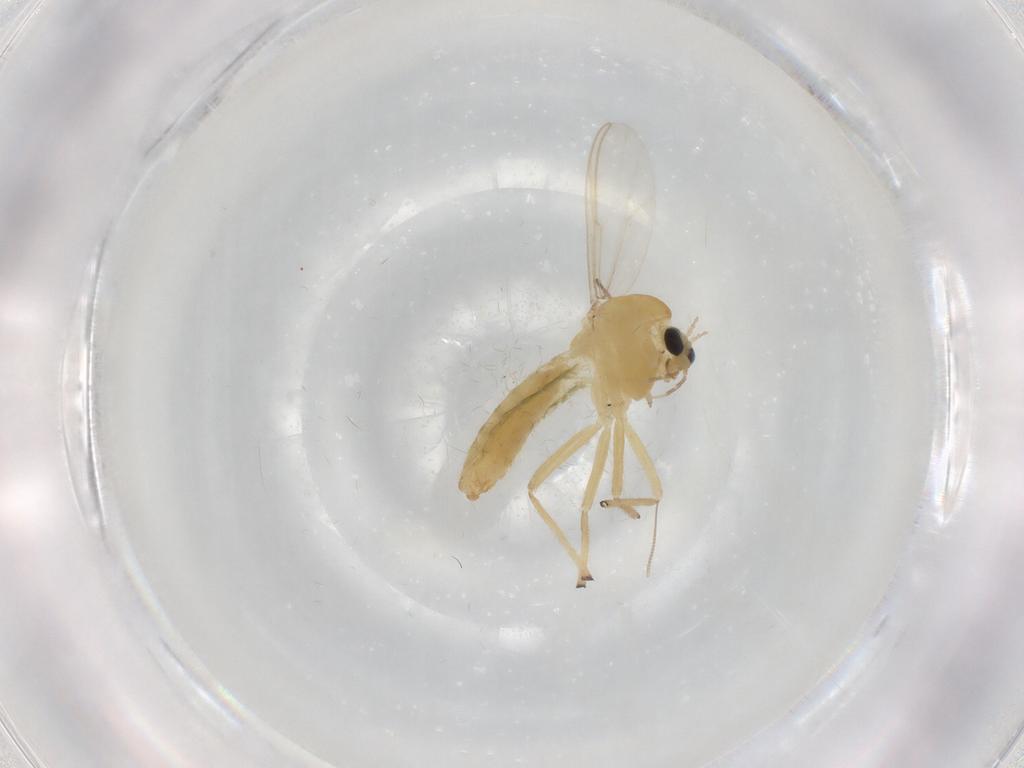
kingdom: Animalia
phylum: Arthropoda
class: Insecta
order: Diptera
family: Chironomidae
